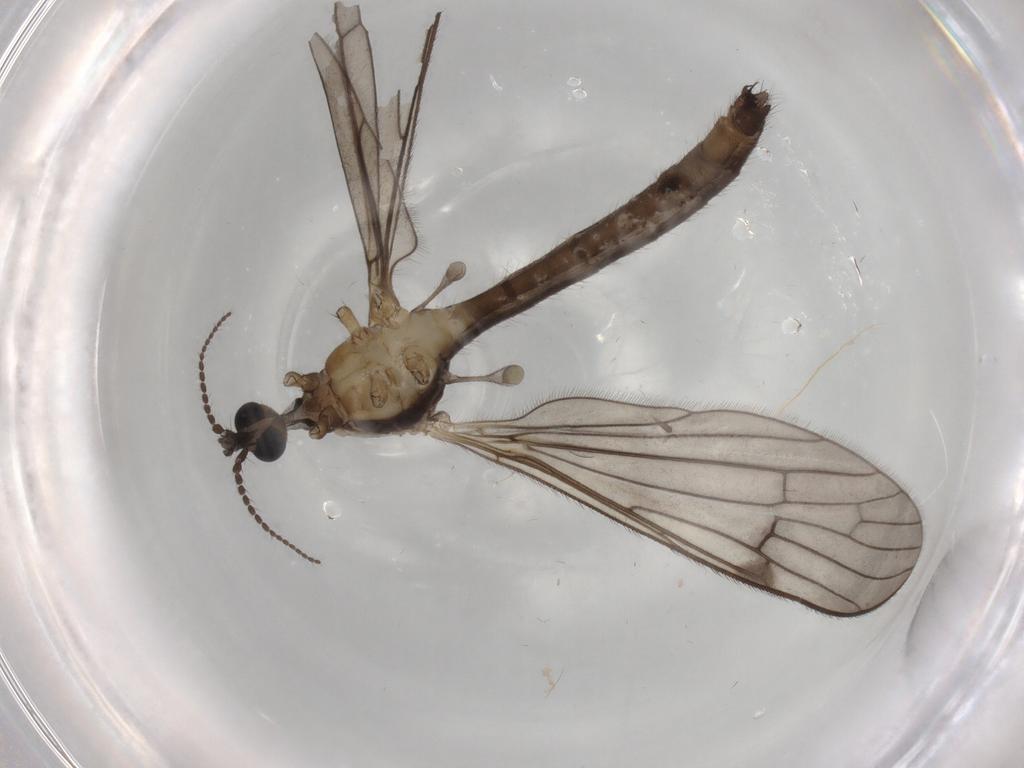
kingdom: Animalia
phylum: Arthropoda
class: Insecta
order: Diptera
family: Limoniidae
